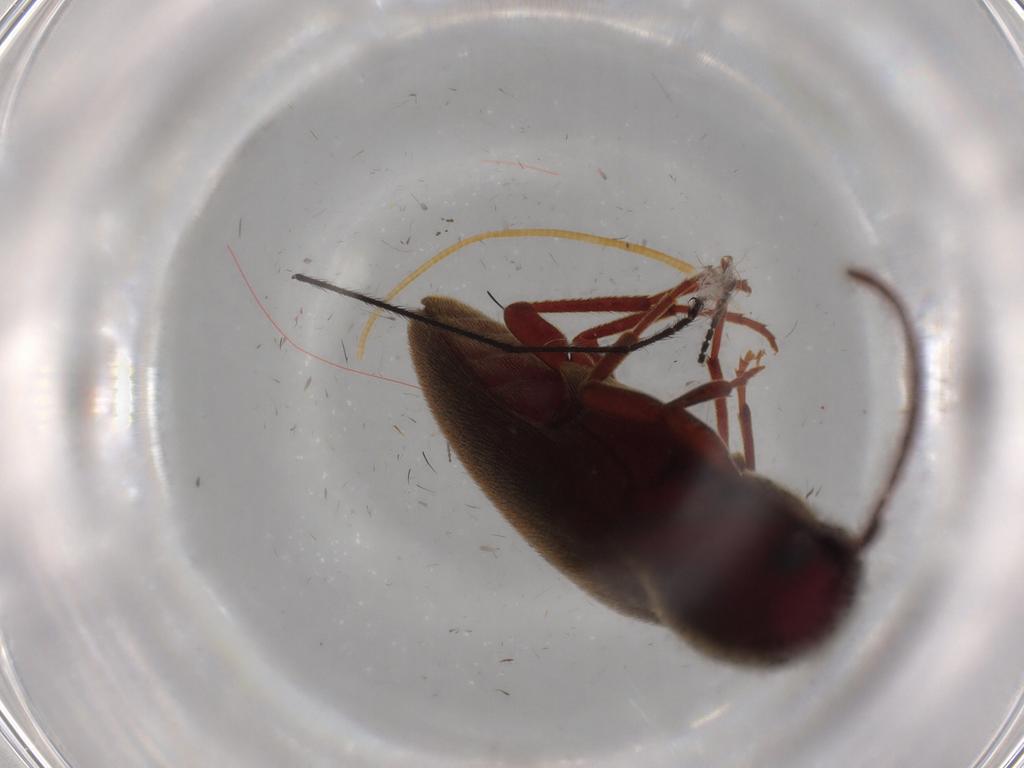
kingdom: Animalia
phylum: Arthropoda
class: Insecta
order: Coleoptera
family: Eucnemidae
